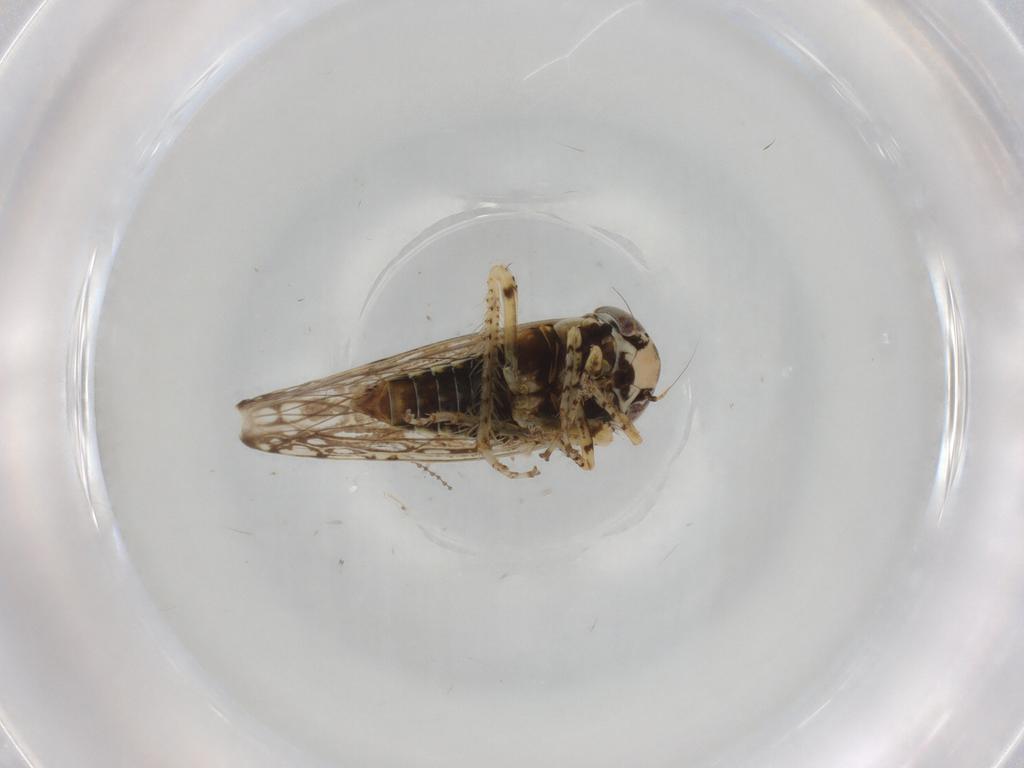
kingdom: Animalia
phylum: Arthropoda
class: Insecta
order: Hemiptera
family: Cicadellidae
